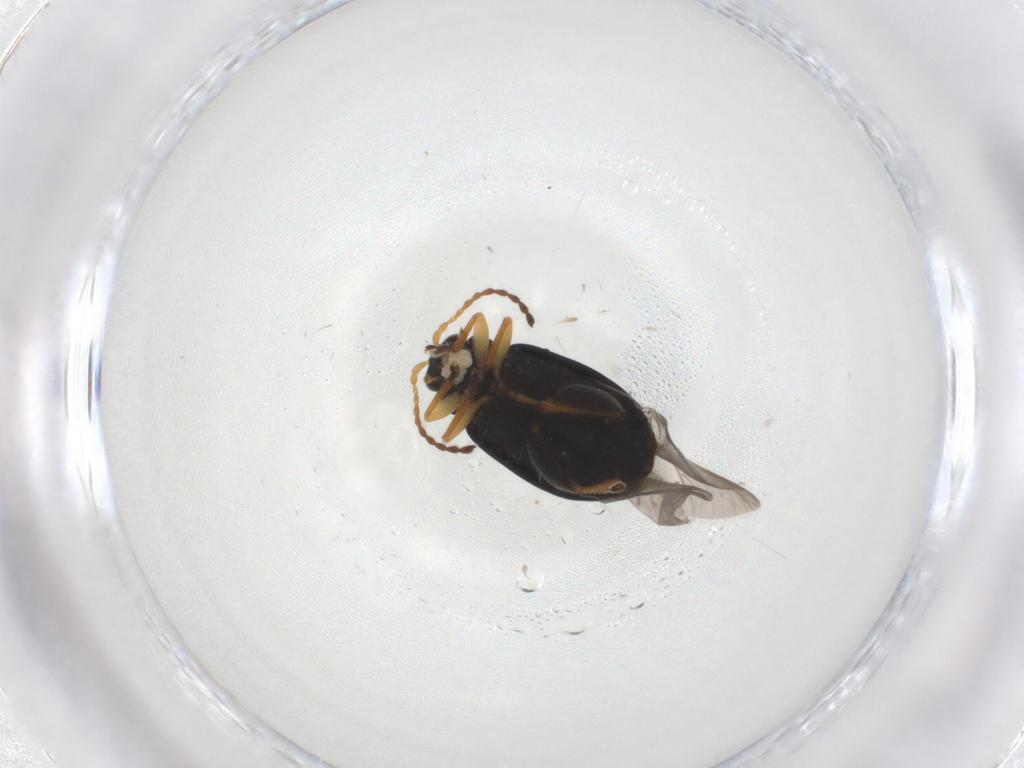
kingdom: Animalia
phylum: Arthropoda
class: Insecta
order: Coleoptera
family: Chrysomelidae
